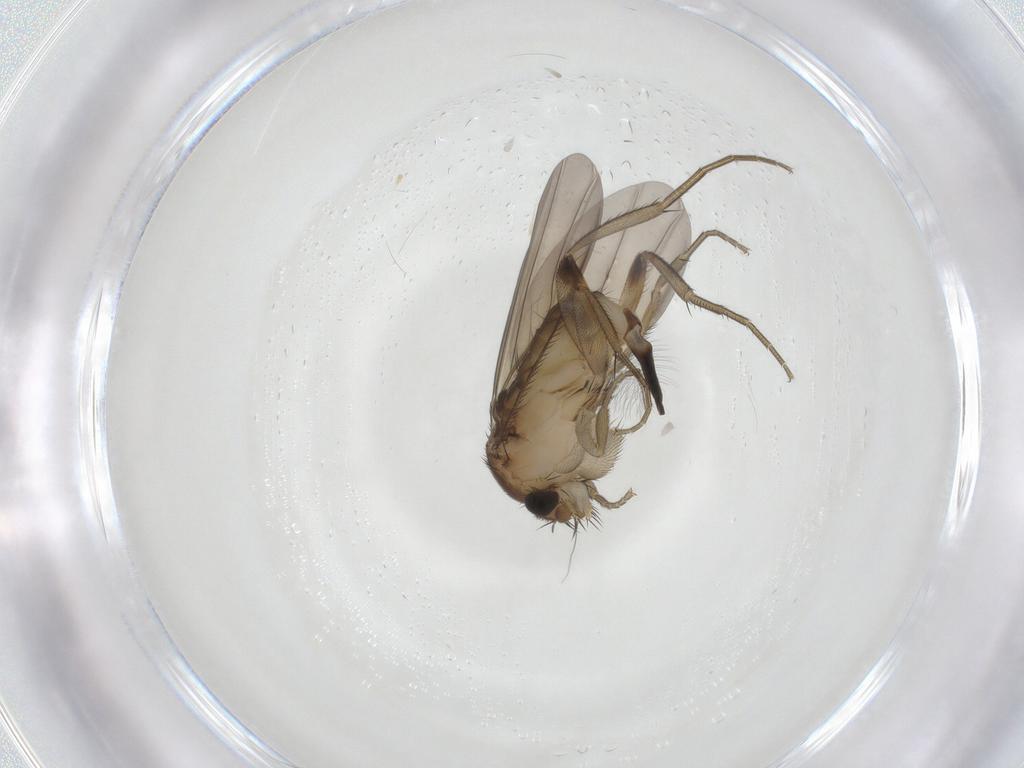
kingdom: Animalia
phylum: Arthropoda
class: Insecta
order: Diptera
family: Phoridae
